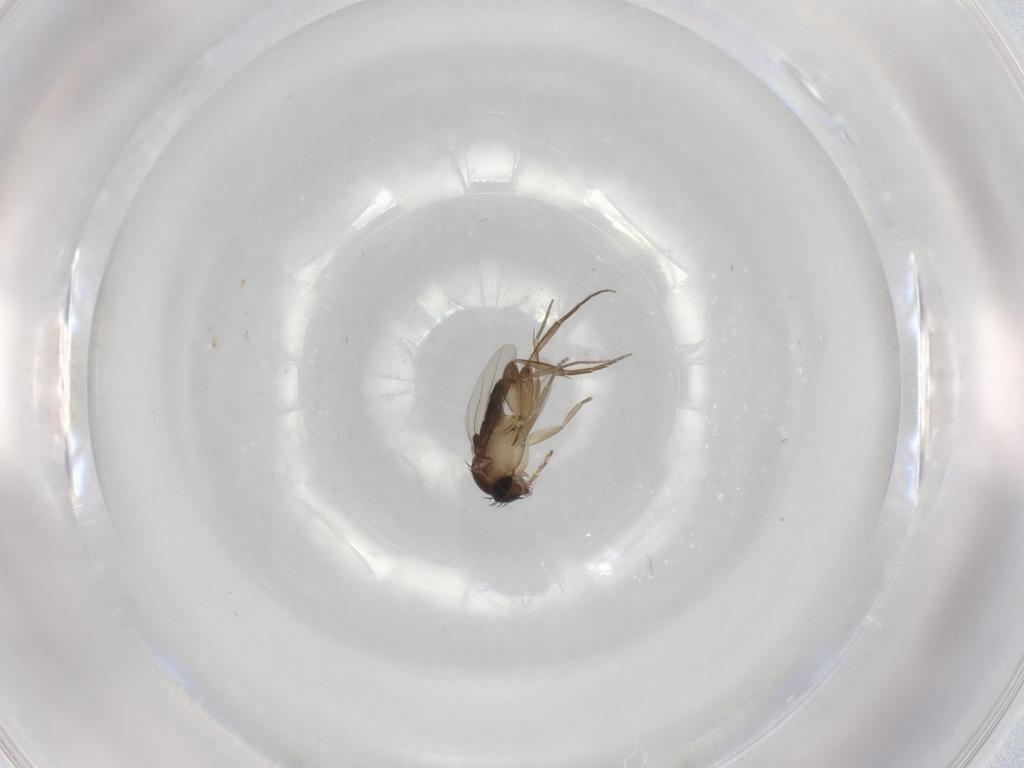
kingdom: Animalia
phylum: Arthropoda
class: Insecta
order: Diptera
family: Ceratopogonidae
